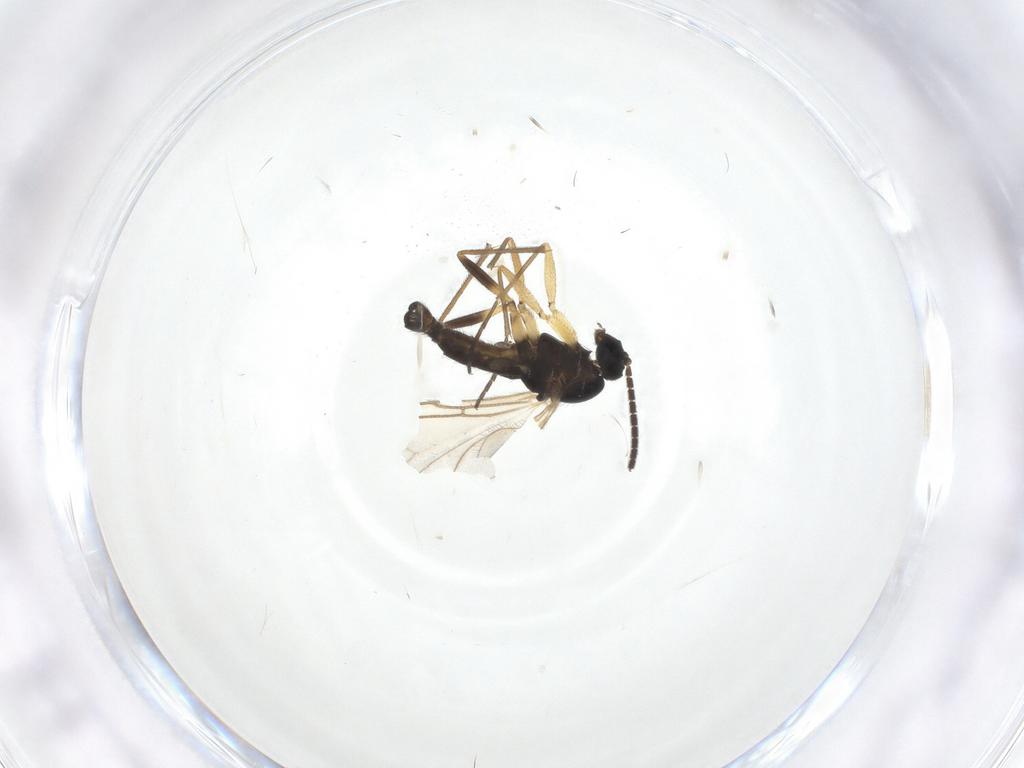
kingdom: Animalia
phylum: Arthropoda
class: Insecta
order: Diptera
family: Sciaridae
